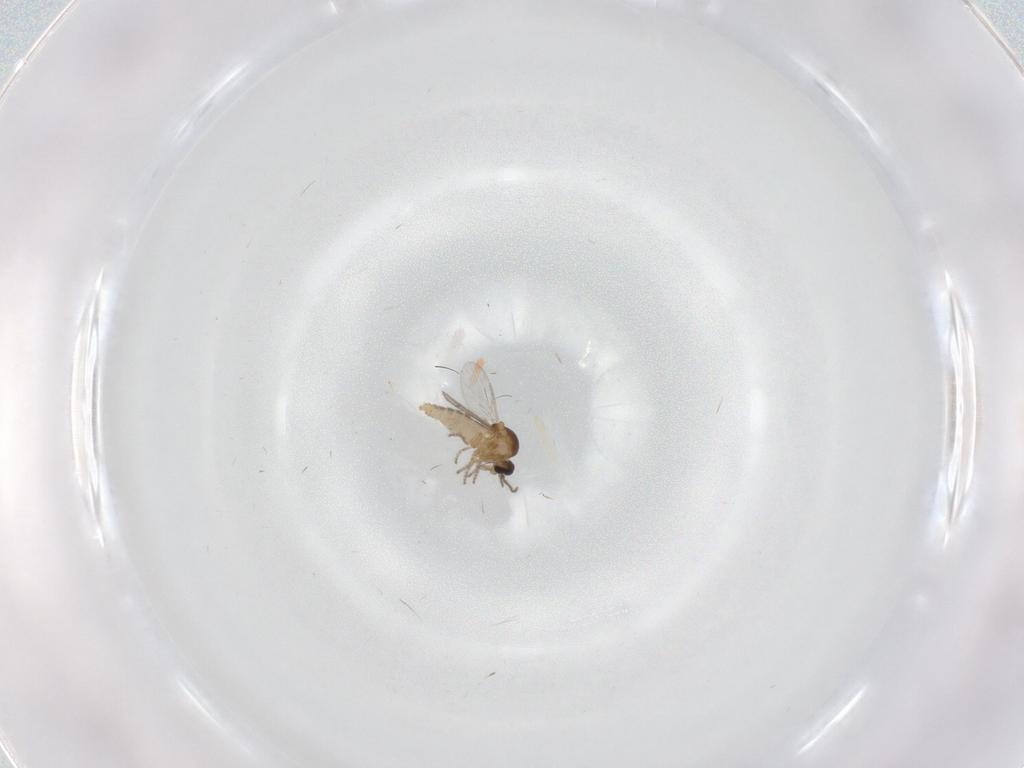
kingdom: Animalia
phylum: Arthropoda
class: Insecta
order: Diptera
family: Ceratopogonidae
